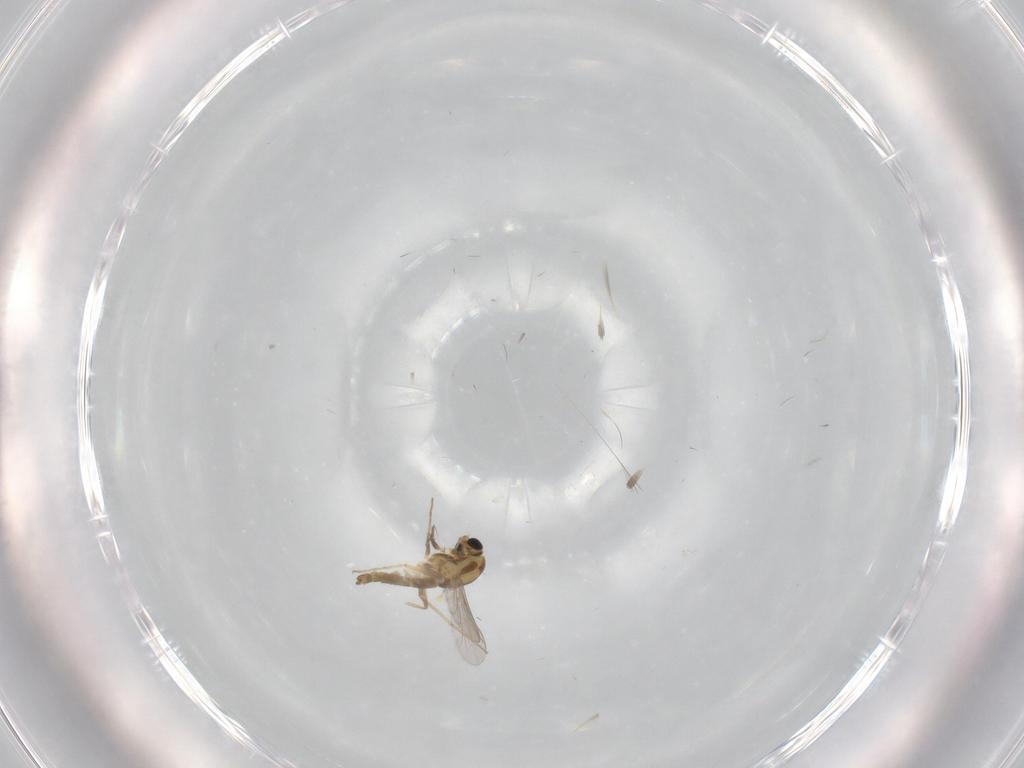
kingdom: Animalia
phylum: Arthropoda
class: Insecta
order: Diptera
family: Chironomidae
